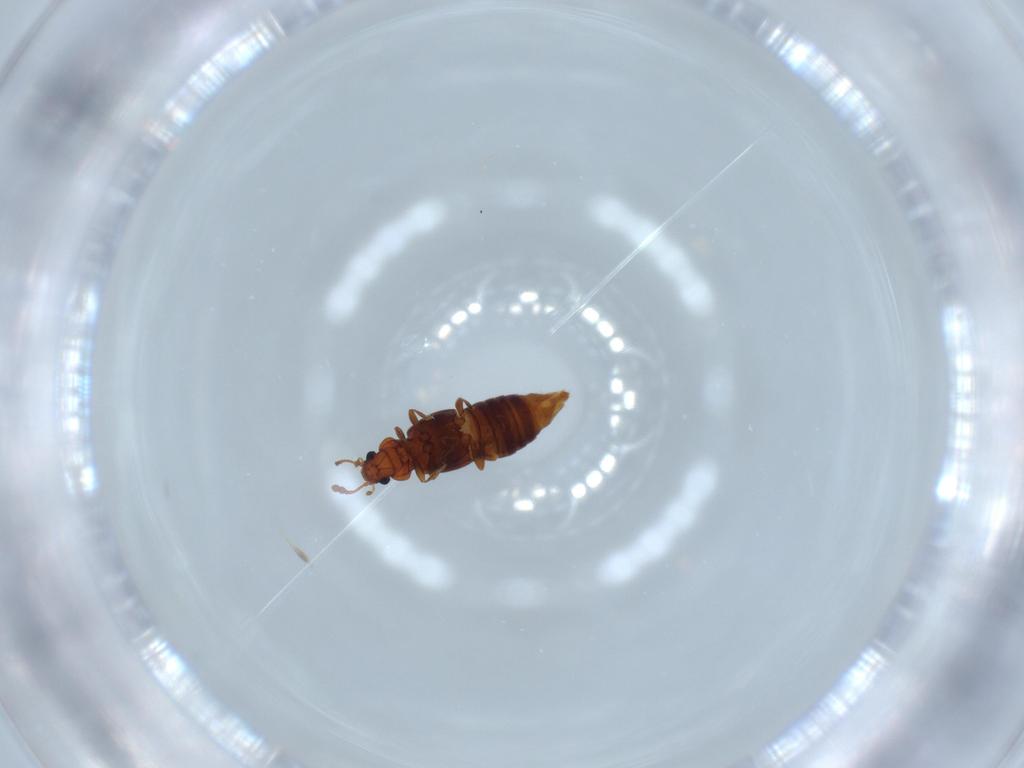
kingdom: Animalia
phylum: Arthropoda
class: Insecta
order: Coleoptera
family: Staphylinidae
